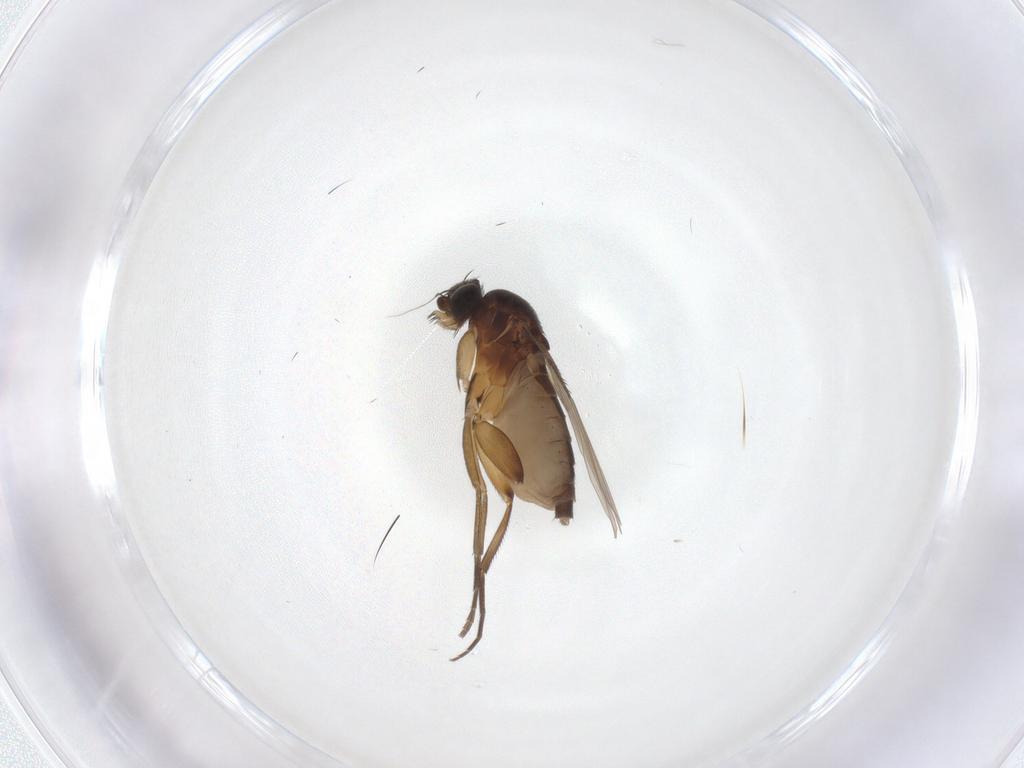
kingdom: Animalia
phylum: Arthropoda
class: Insecta
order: Diptera
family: Phoridae
